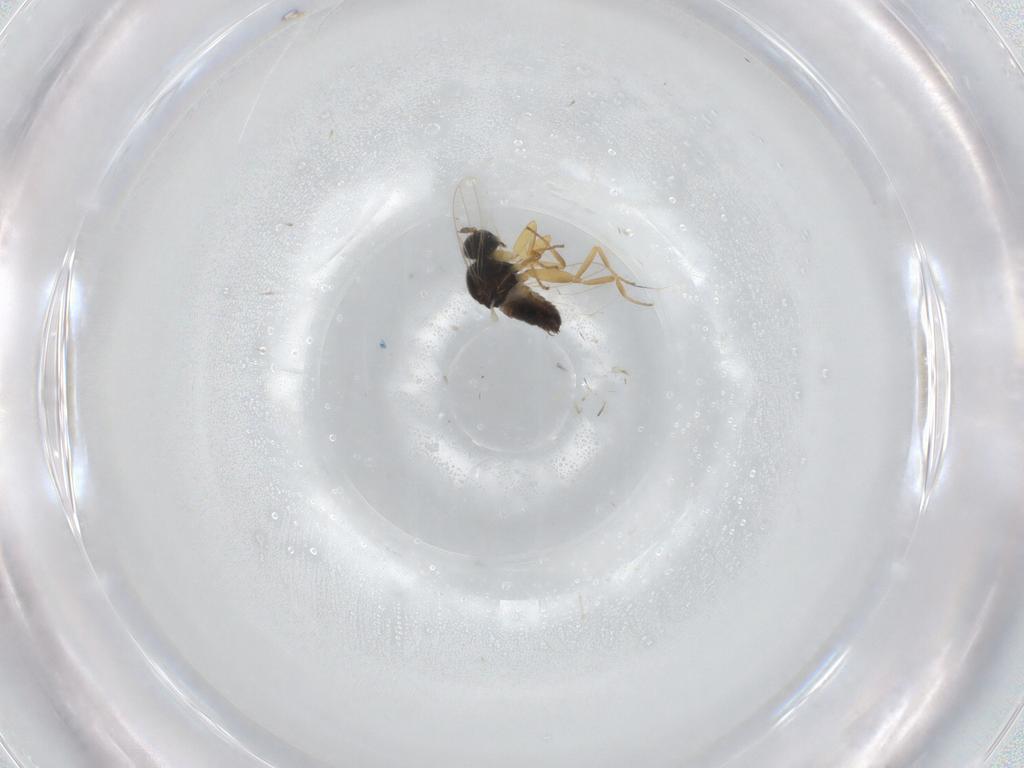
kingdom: Animalia
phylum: Arthropoda
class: Insecta
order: Diptera
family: Hybotidae
